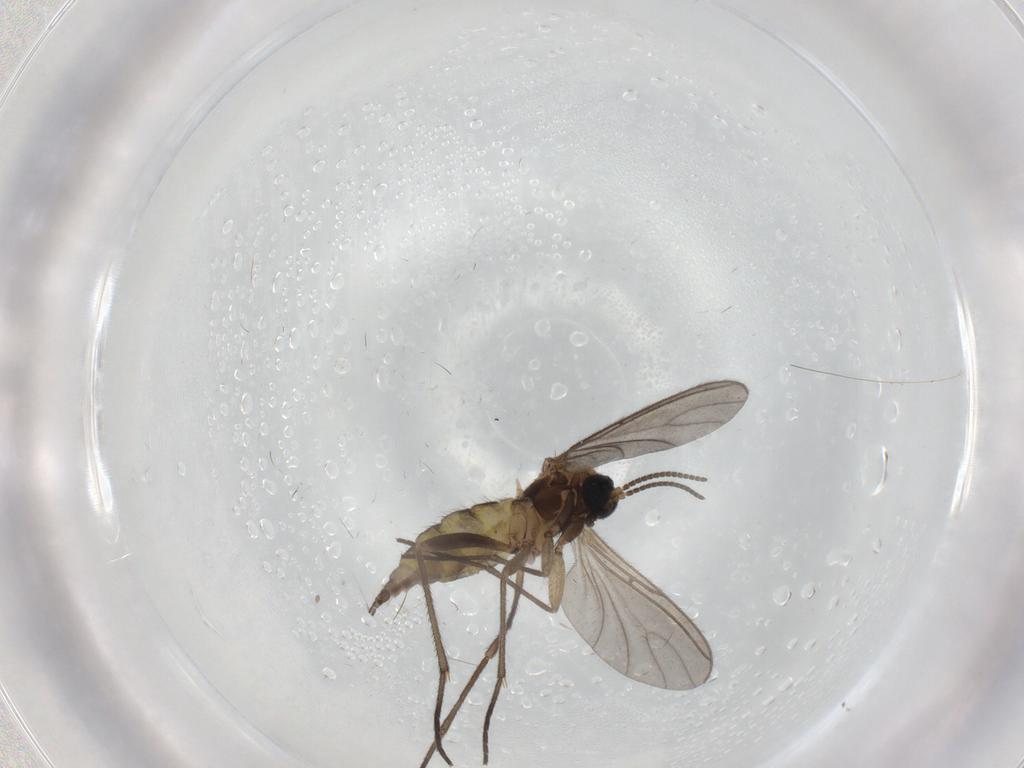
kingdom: Animalia
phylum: Arthropoda
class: Insecta
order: Diptera
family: Sciaridae
